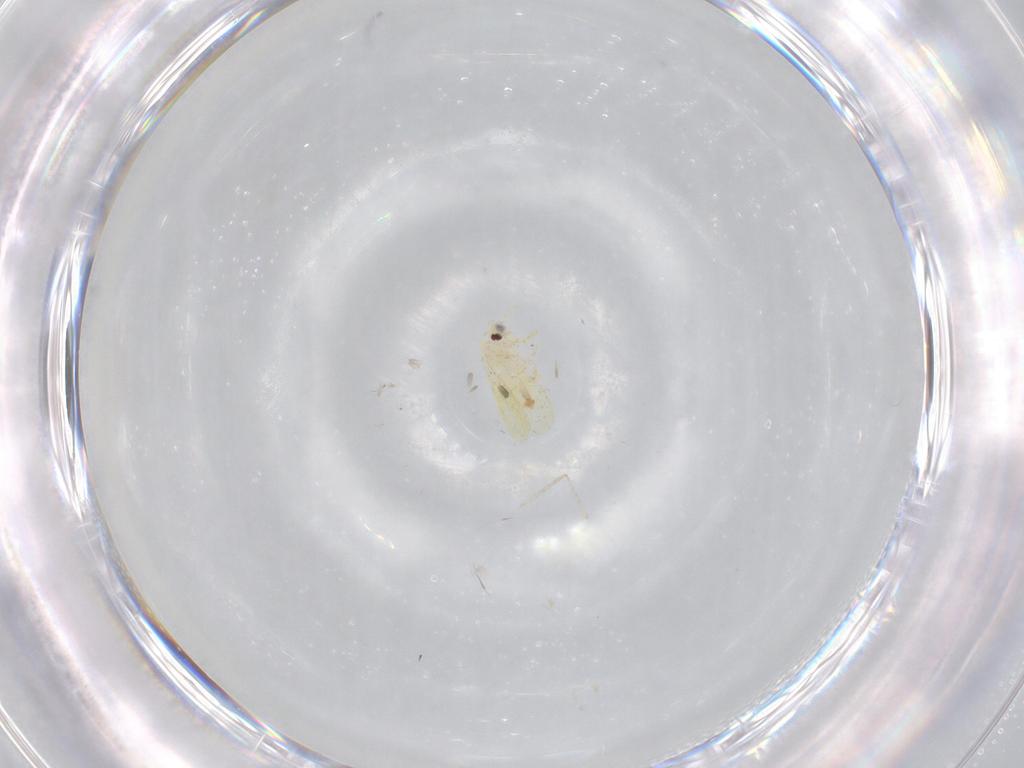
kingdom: Animalia
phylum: Arthropoda
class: Insecta
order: Hemiptera
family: Aleyrodidae
